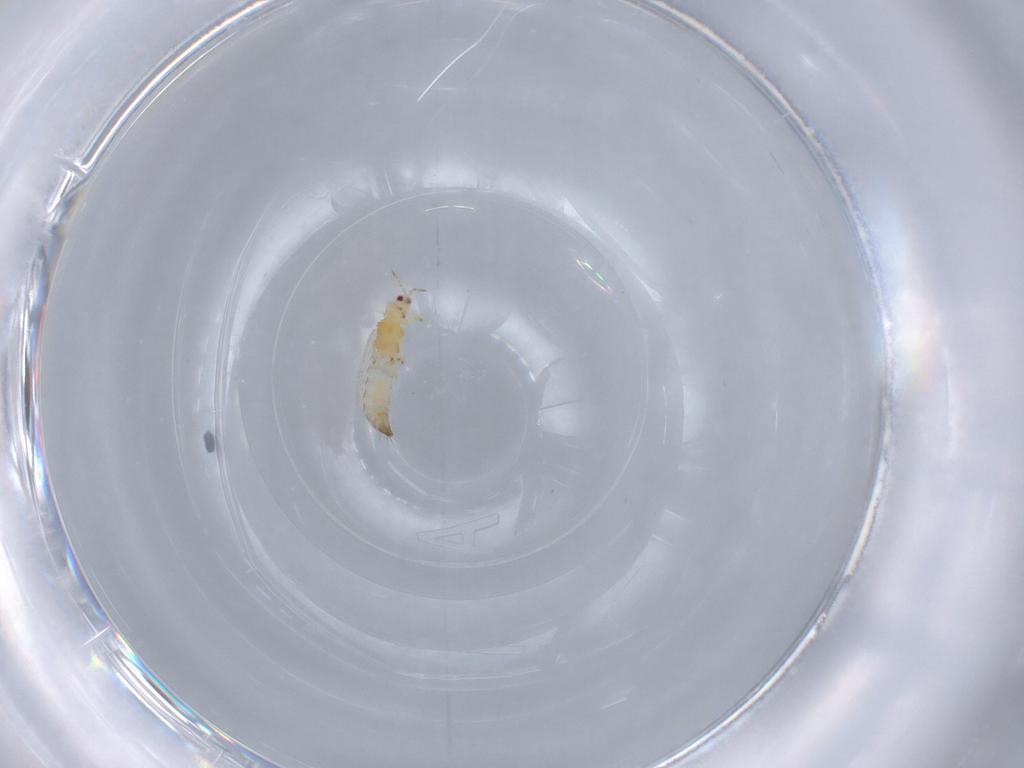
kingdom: Animalia
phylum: Arthropoda
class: Insecta
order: Thysanoptera
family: Thripidae
